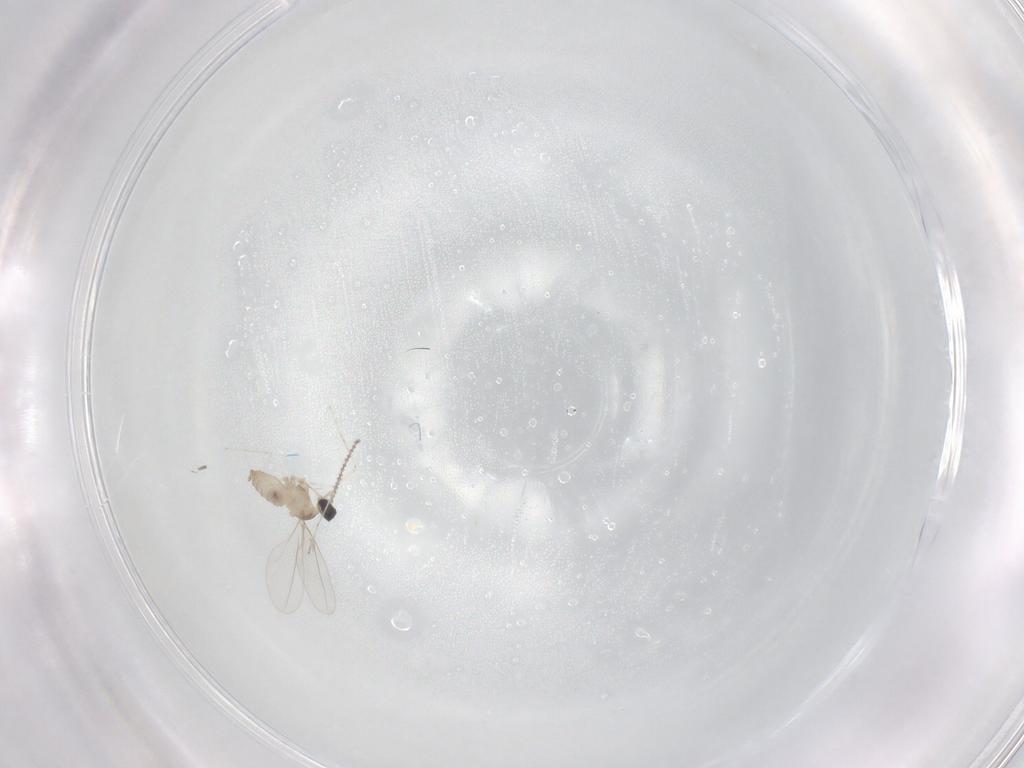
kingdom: Animalia
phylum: Arthropoda
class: Insecta
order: Diptera
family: Cecidomyiidae
